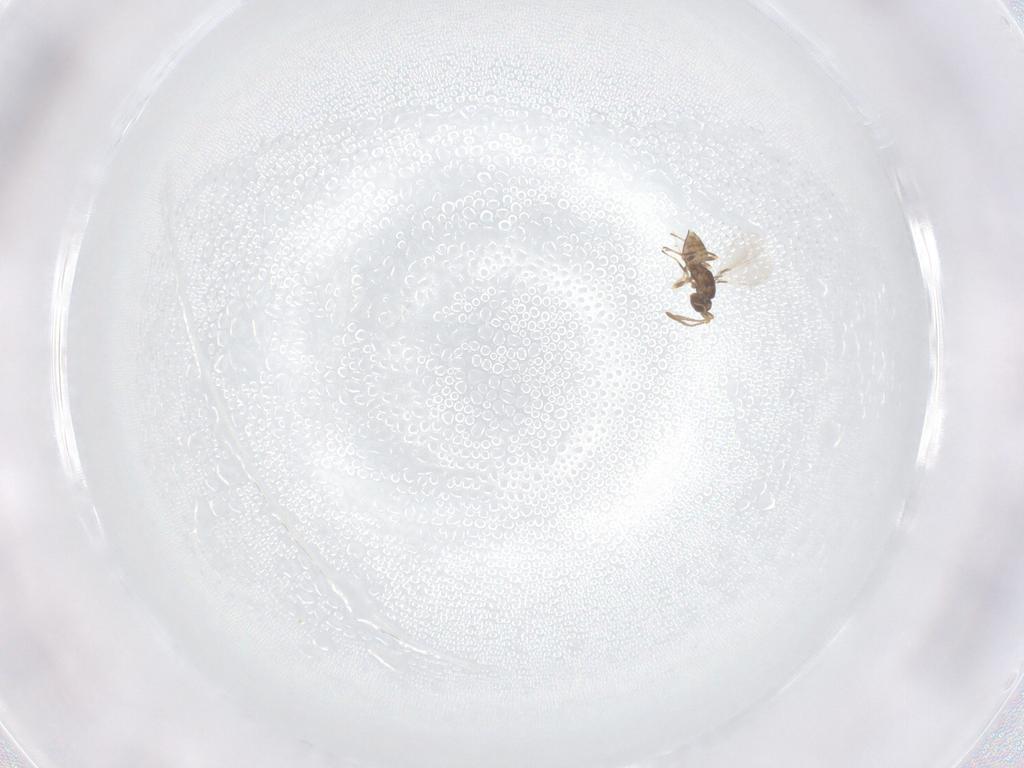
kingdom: Animalia
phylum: Arthropoda
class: Insecta
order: Hymenoptera
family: Mymaridae
